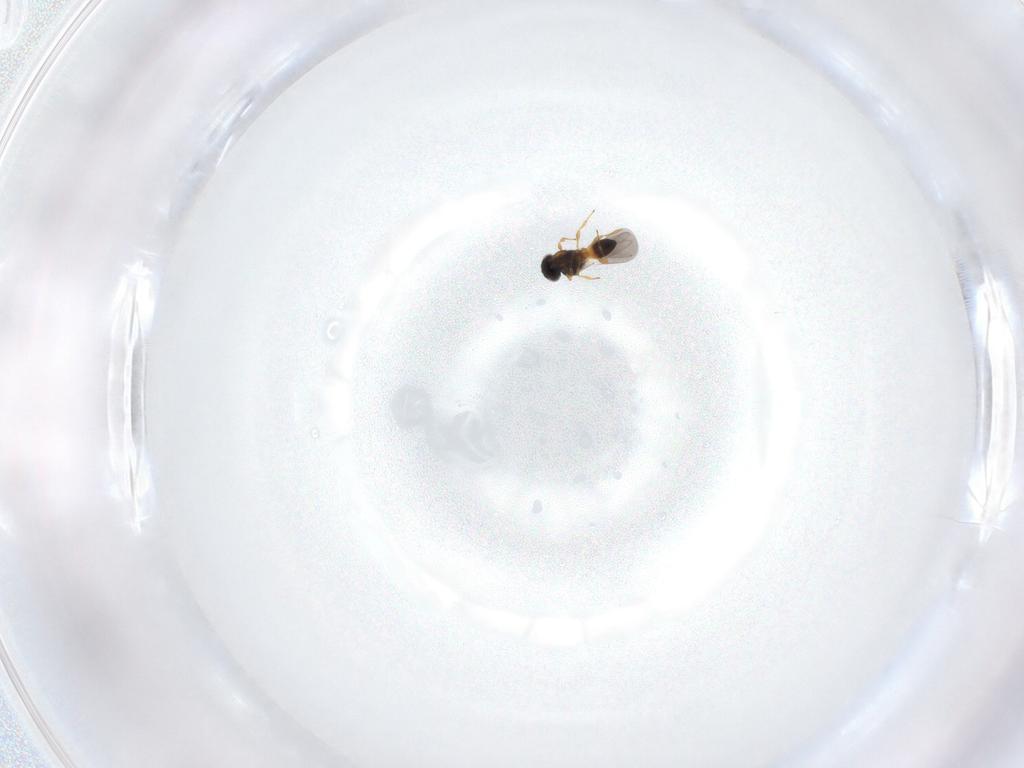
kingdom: Animalia
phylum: Arthropoda
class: Insecta
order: Hymenoptera
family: Platygastridae
